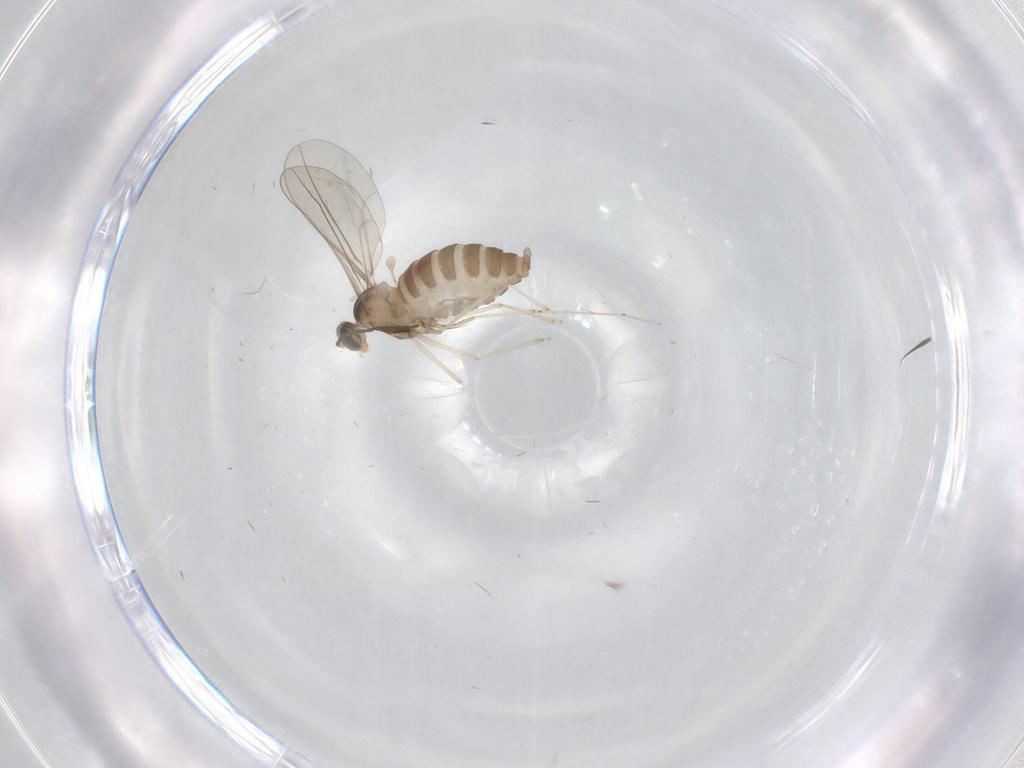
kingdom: Animalia
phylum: Arthropoda
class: Insecta
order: Diptera
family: Cecidomyiidae
